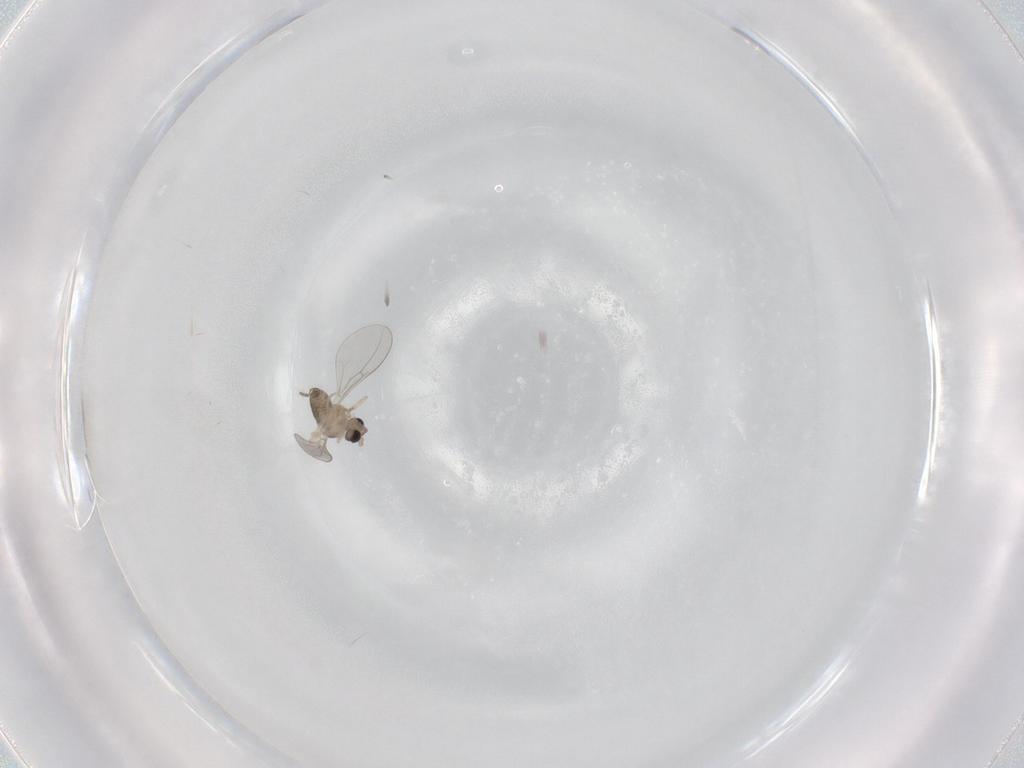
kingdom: Animalia
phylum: Arthropoda
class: Insecta
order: Diptera
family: Cecidomyiidae
